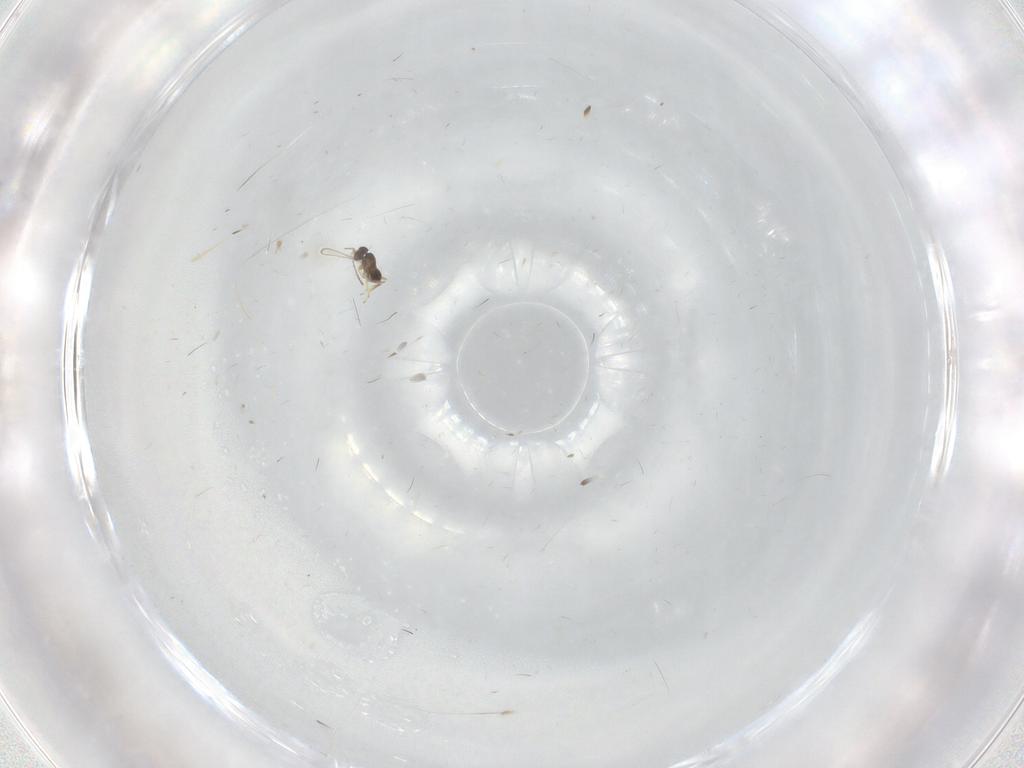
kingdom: Animalia
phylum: Arthropoda
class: Insecta
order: Hymenoptera
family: Mymaridae
